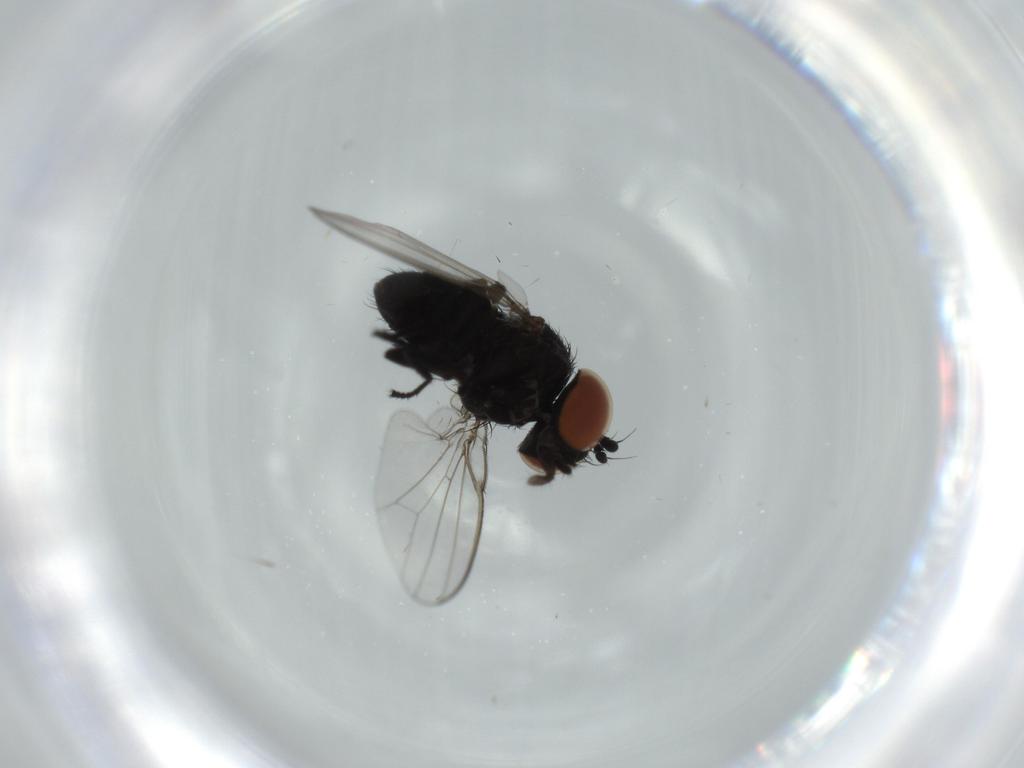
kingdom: Animalia
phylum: Arthropoda
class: Insecta
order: Diptera
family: Milichiidae
